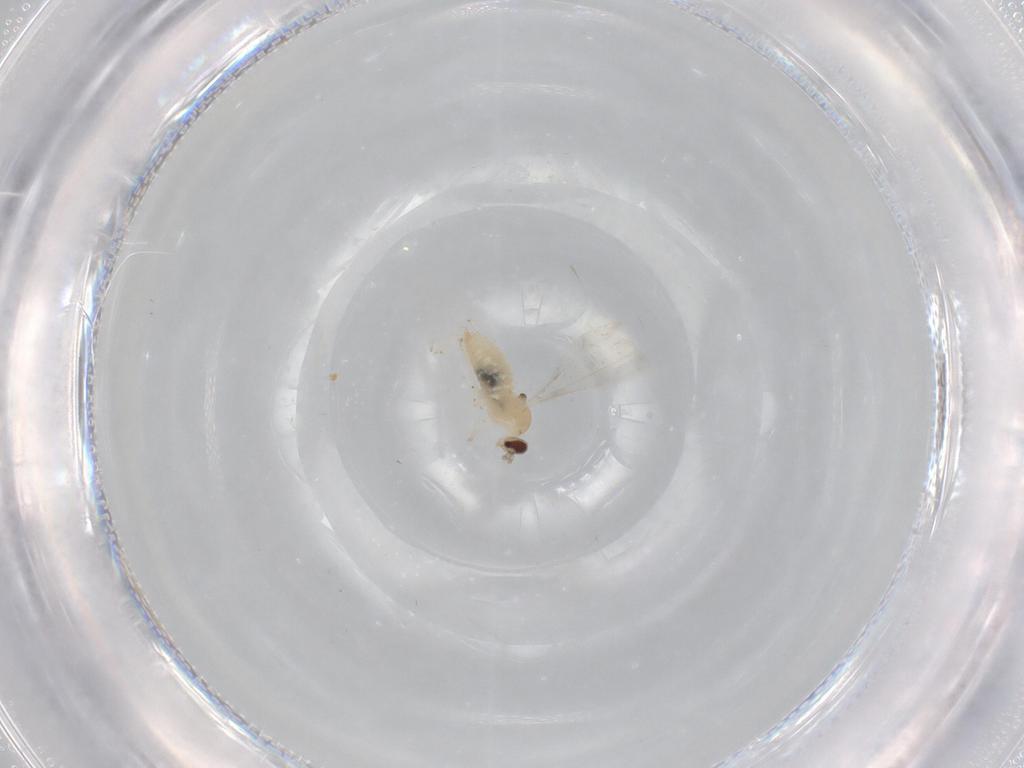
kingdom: Animalia
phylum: Arthropoda
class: Insecta
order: Diptera
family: Cecidomyiidae
